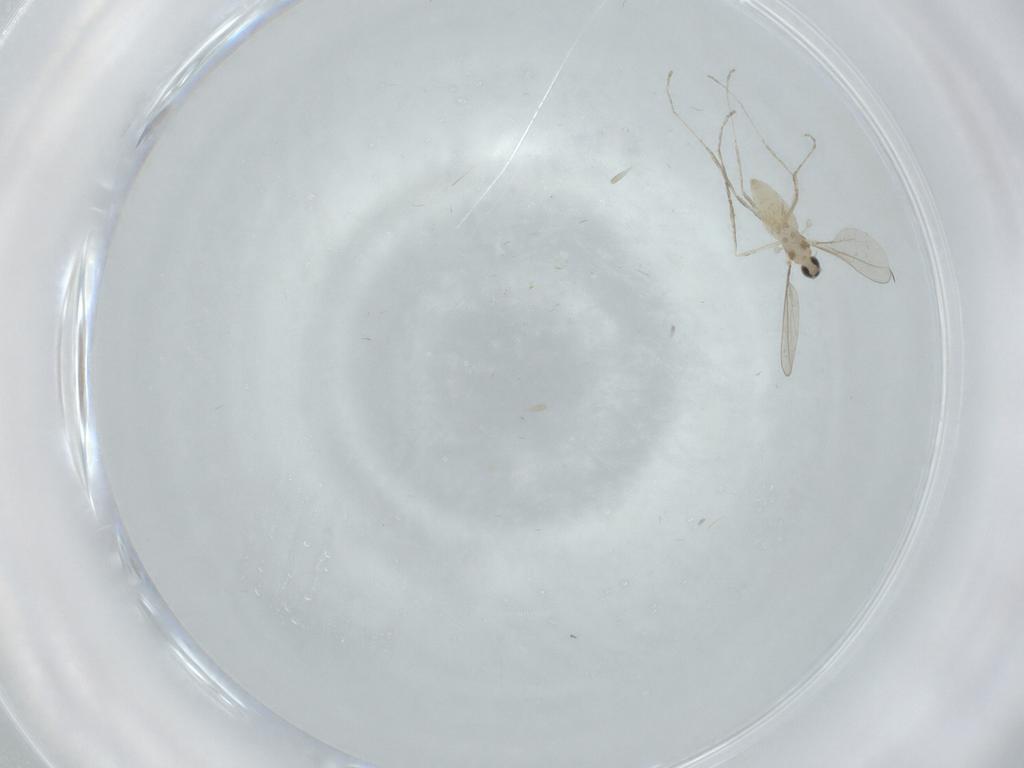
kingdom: Animalia
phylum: Arthropoda
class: Insecta
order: Diptera
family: Cecidomyiidae
